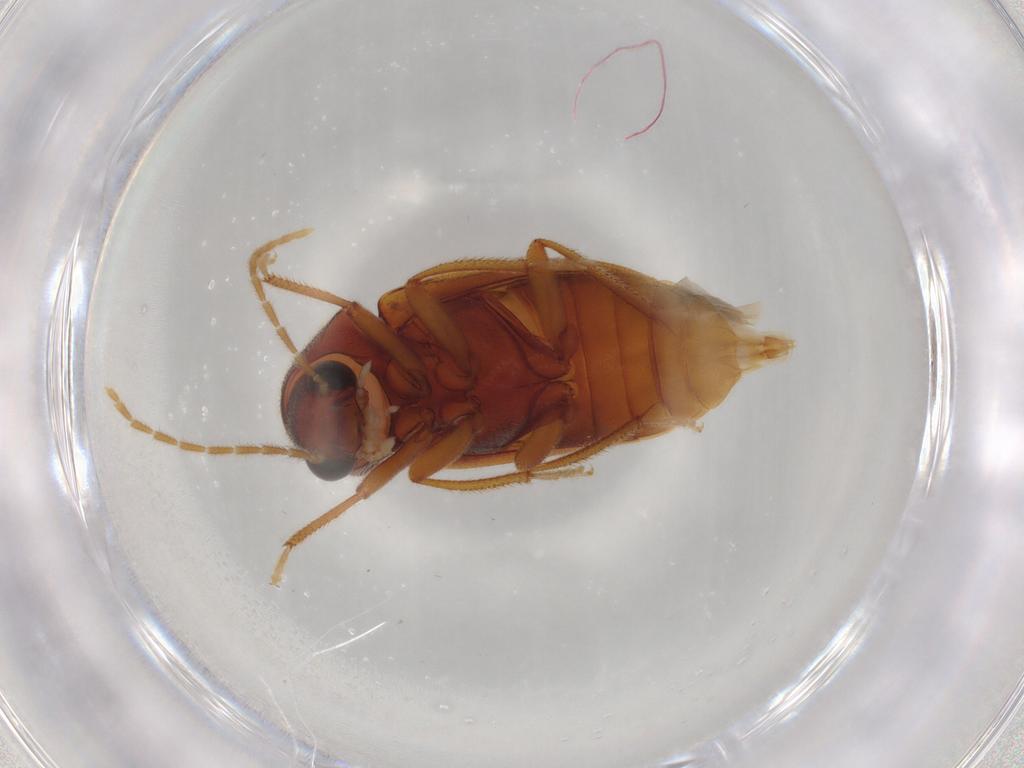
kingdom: Animalia
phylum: Arthropoda
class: Insecta
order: Coleoptera
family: Ptilodactylidae
